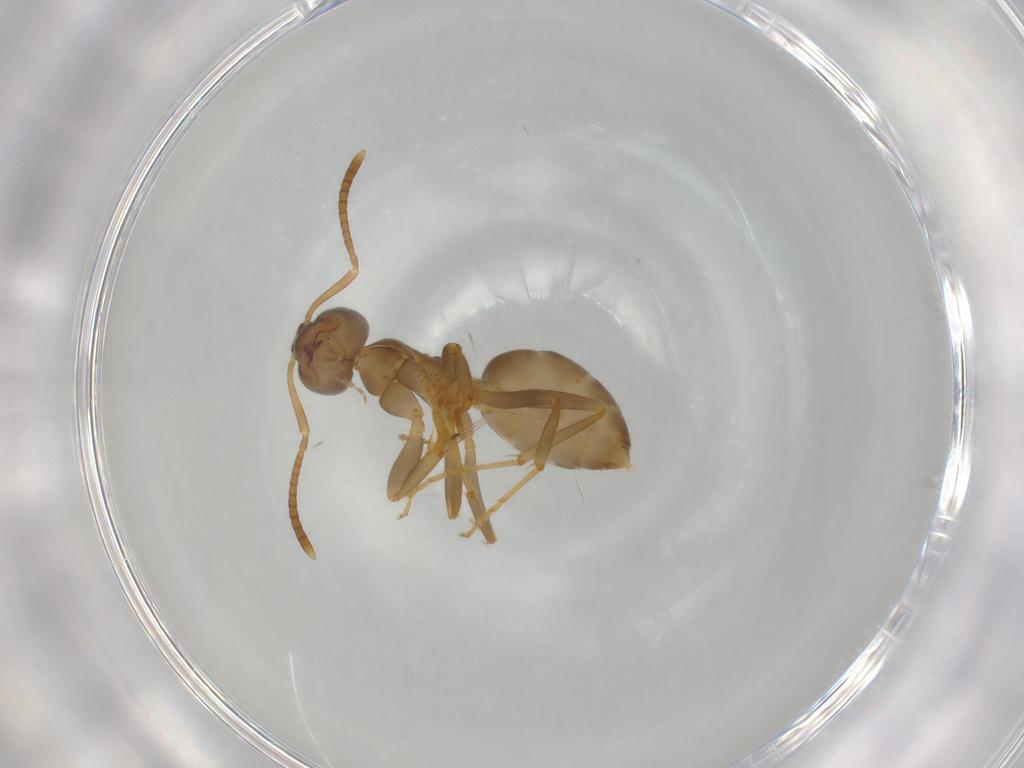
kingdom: Animalia
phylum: Arthropoda
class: Insecta
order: Hymenoptera
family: Formicidae
